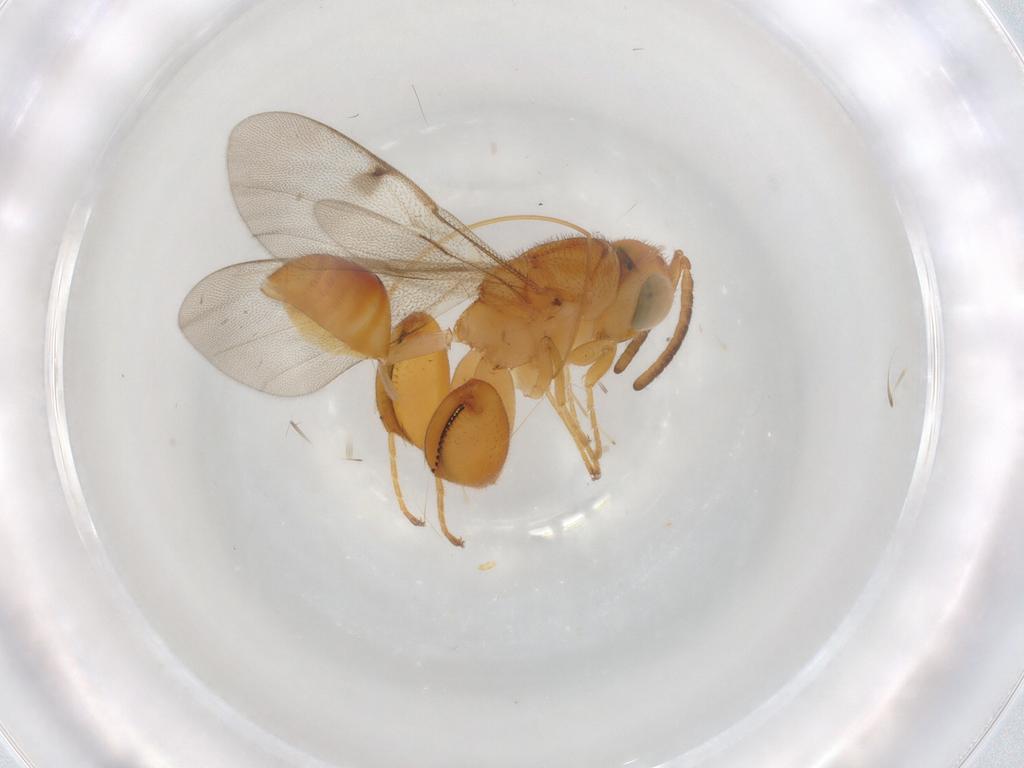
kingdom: Animalia
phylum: Arthropoda
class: Insecta
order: Hymenoptera
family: Chalcididae
